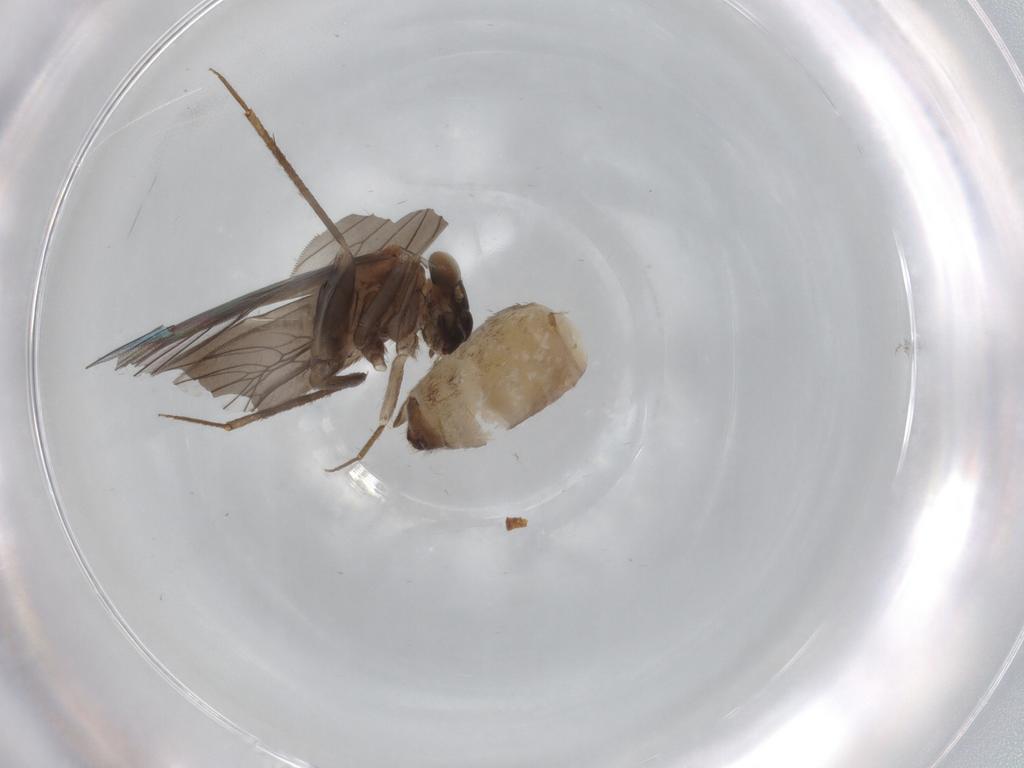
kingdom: Animalia
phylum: Arthropoda
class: Insecta
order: Psocodea
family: Lepidopsocidae
